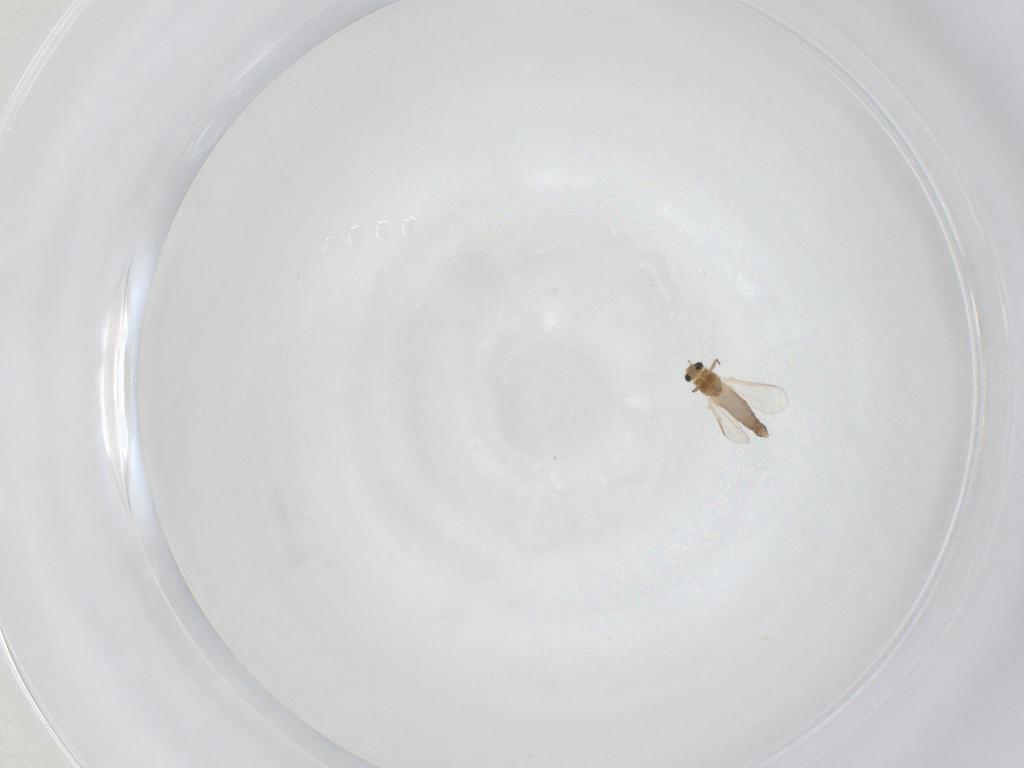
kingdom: Animalia
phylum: Arthropoda
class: Insecta
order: Diptera
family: Chironomidae
